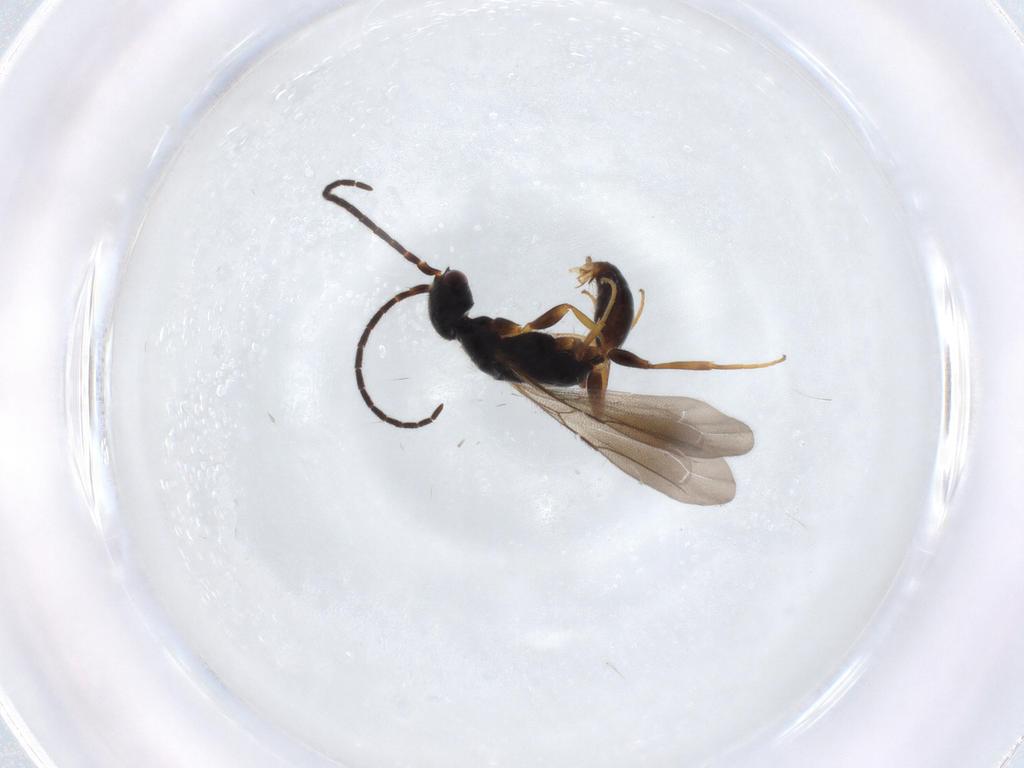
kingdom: Animalia
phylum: Arthropoda
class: Insecta
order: Hymenoptera
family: Bethylidae
